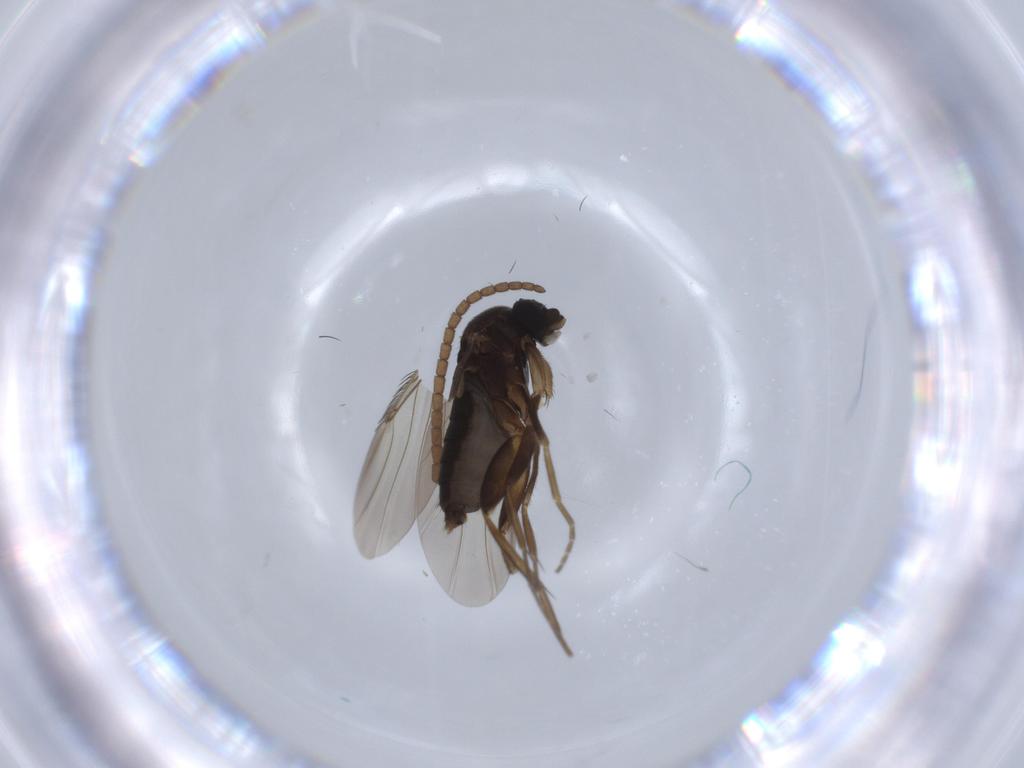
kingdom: Animalia
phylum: Arthropoda
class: Insecta
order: Diptera
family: Phoridae
